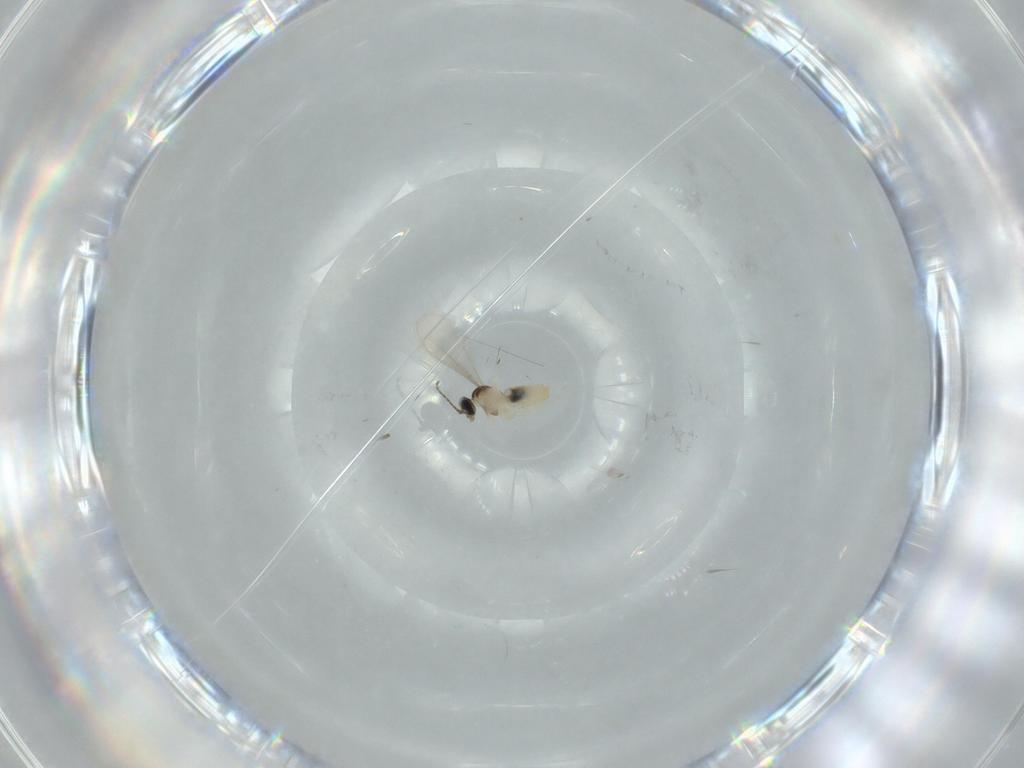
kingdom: Animalia
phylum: Arthropoda
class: Insecta
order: Diptera
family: Cecidomyiidae
